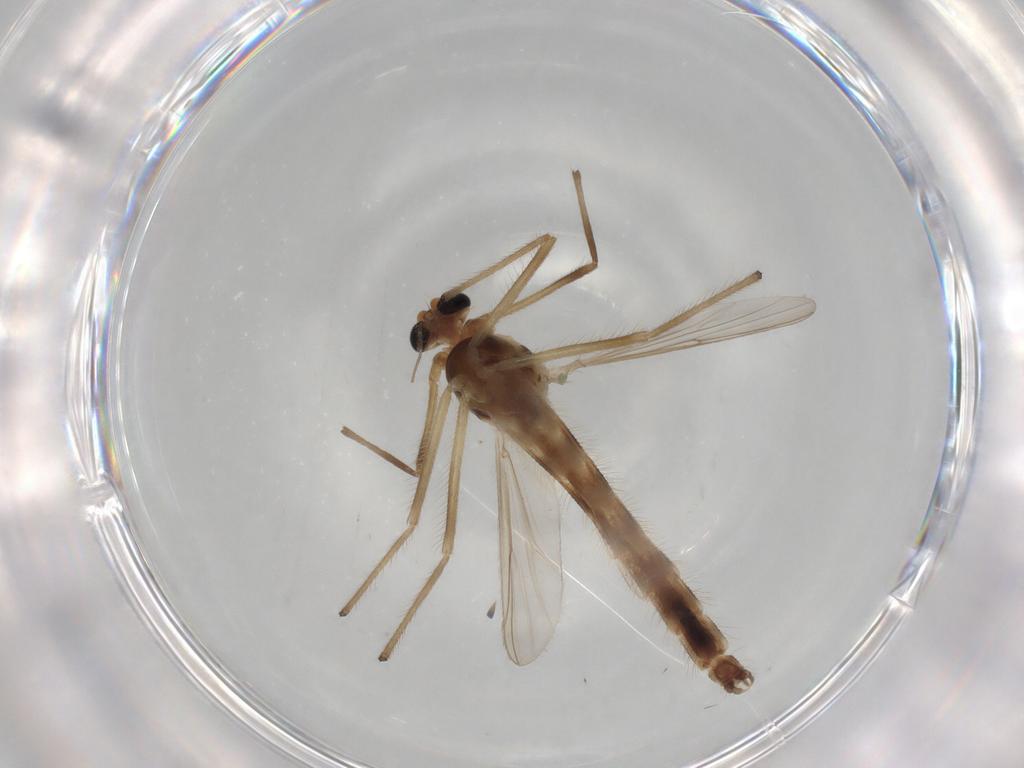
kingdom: Animalia
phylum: Arthropoda
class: Insecta
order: Diptera
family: Chironomidae
